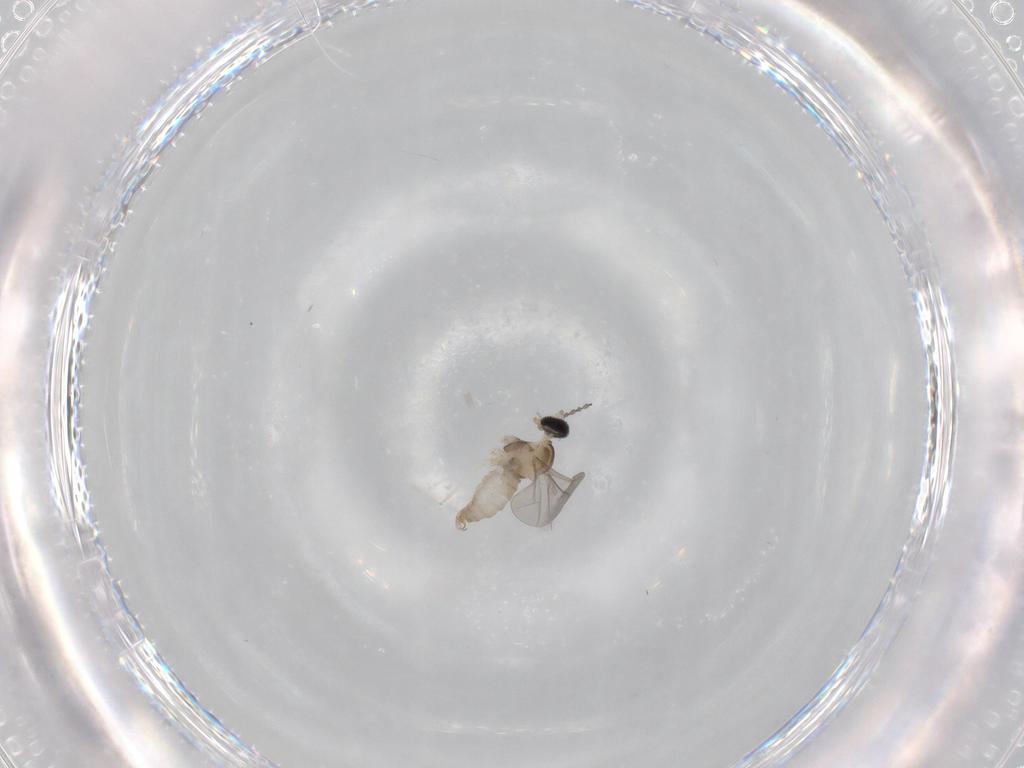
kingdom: Animalia
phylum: Arthropoda
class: Insecta
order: Diptera
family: Cecidomyiidae
